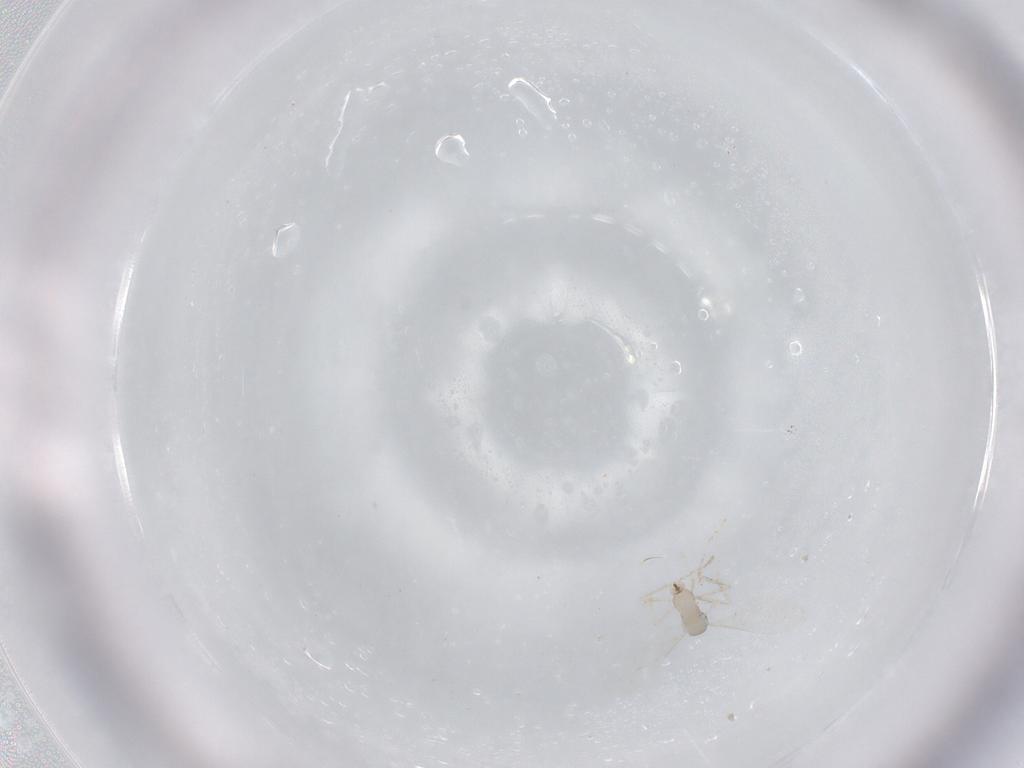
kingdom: Animalia
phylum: Arthropoda
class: Insecta
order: Diptera
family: Cecidomyiidae
